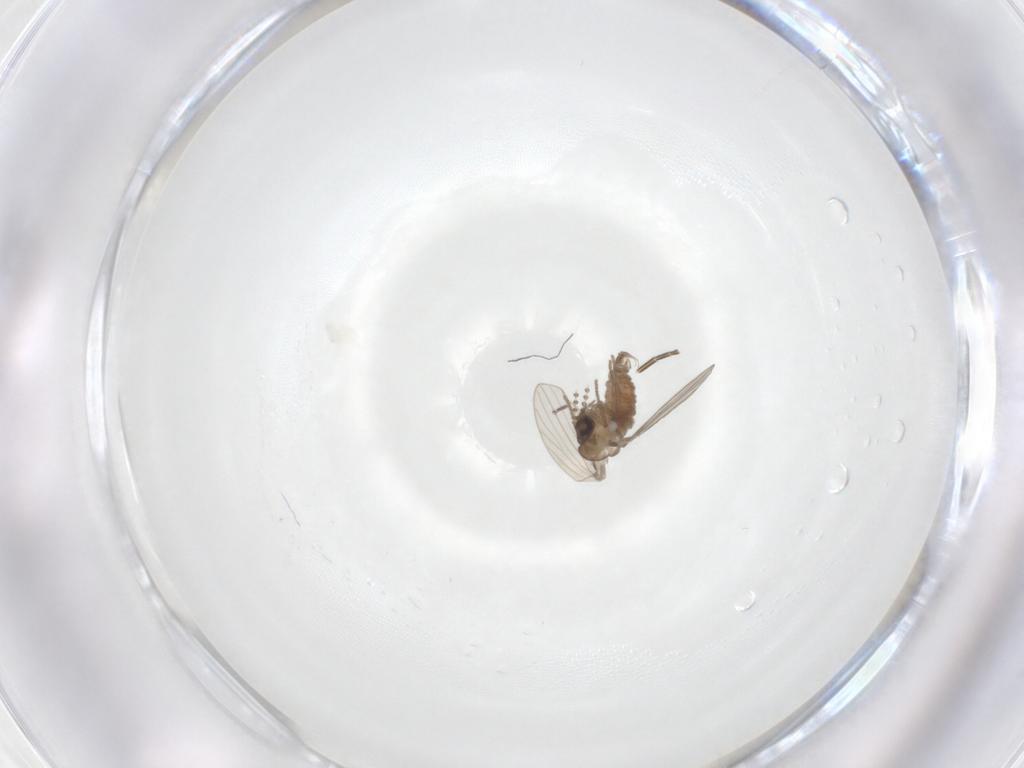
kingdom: Animalia
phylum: Arthropoda
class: Insecta
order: Diptera
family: Psychodidae
